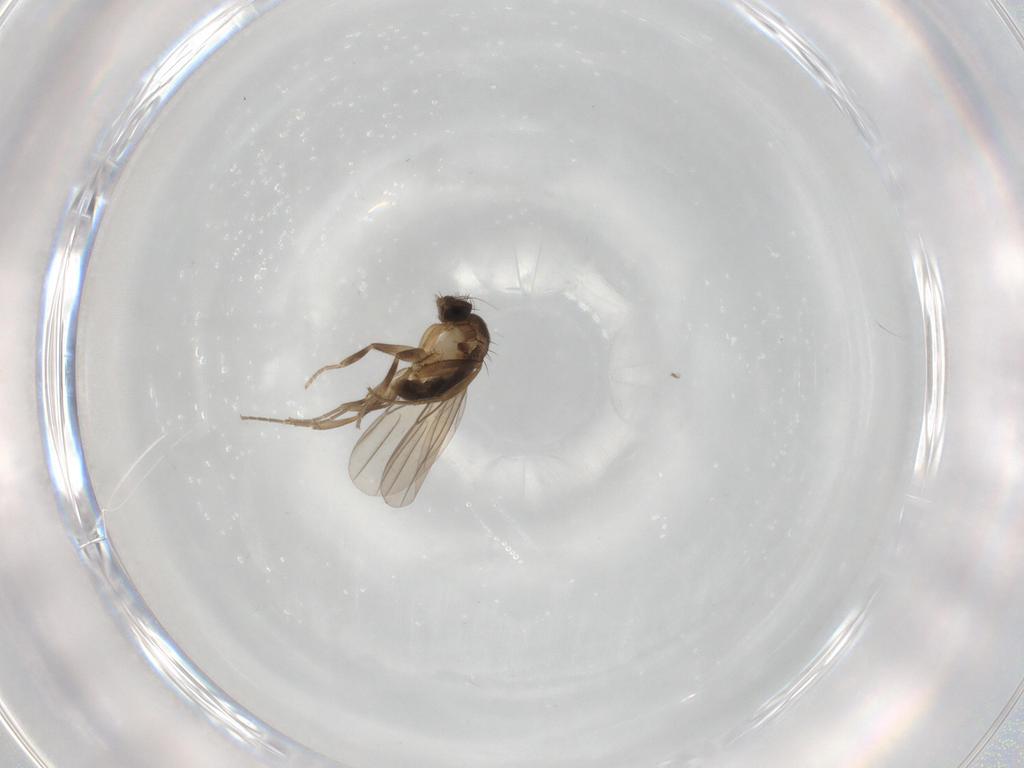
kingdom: Animalia
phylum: Arthropoda
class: Insecta
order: Diptera
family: Phoridae
